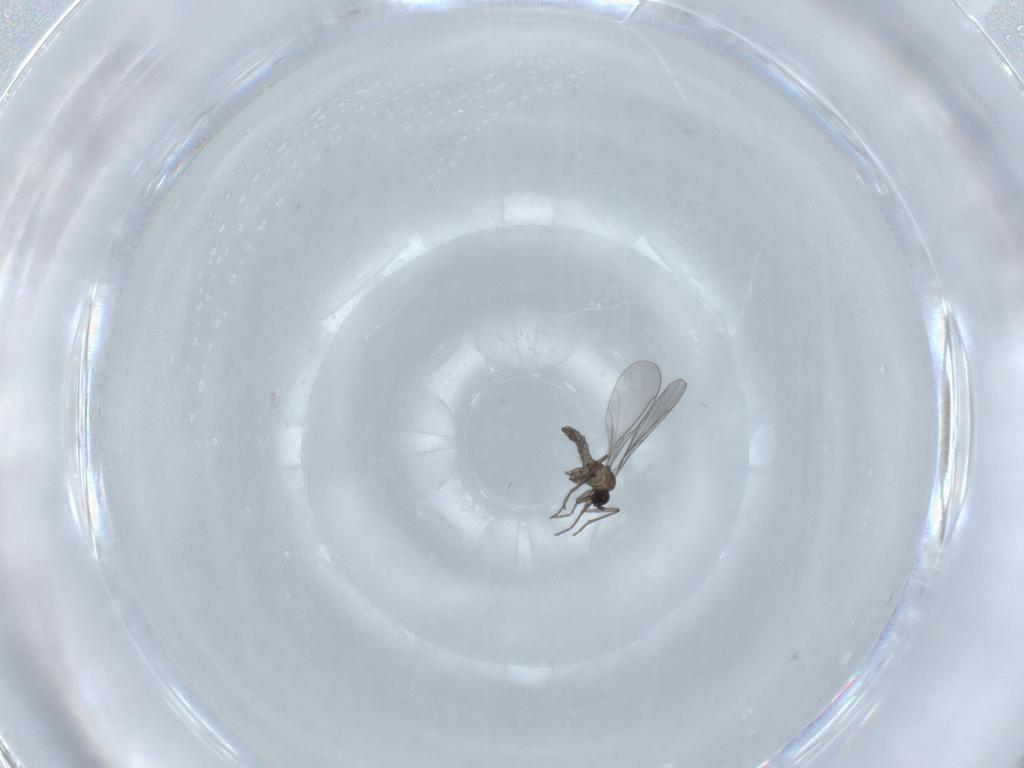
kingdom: Animalia
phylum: Arthropoda
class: Insecta
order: Diptera
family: Sciaridae
